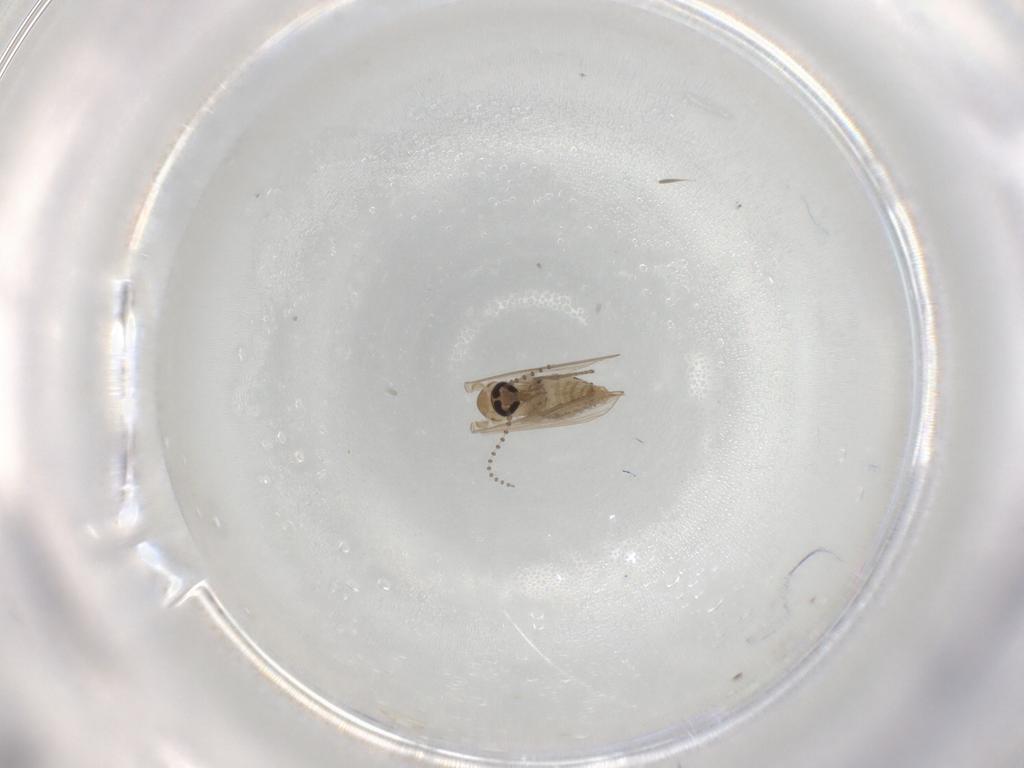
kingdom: Animalia
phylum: Arthropoda
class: Insecta
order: Diptera
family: Psychodidae
